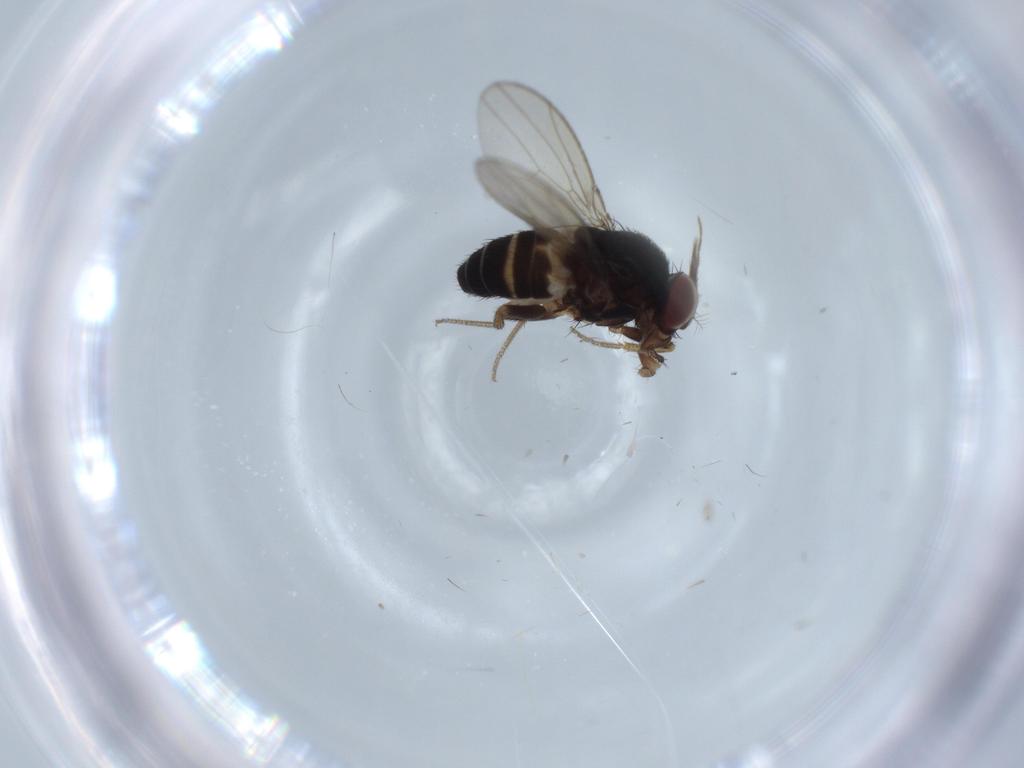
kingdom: Animalia
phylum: Arthropoda
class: Insecta
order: Diptera
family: Drosophilidae
